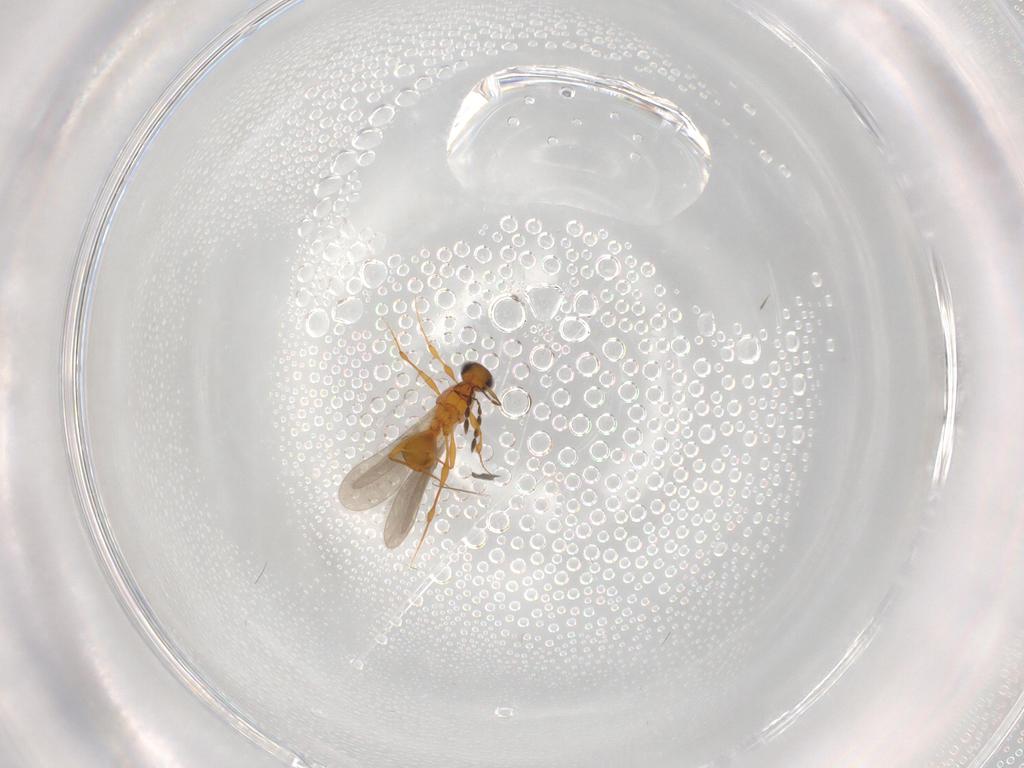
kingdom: Animalia
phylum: Arthropoda
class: Insecta
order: Hymenoptera
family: Platygastridae
